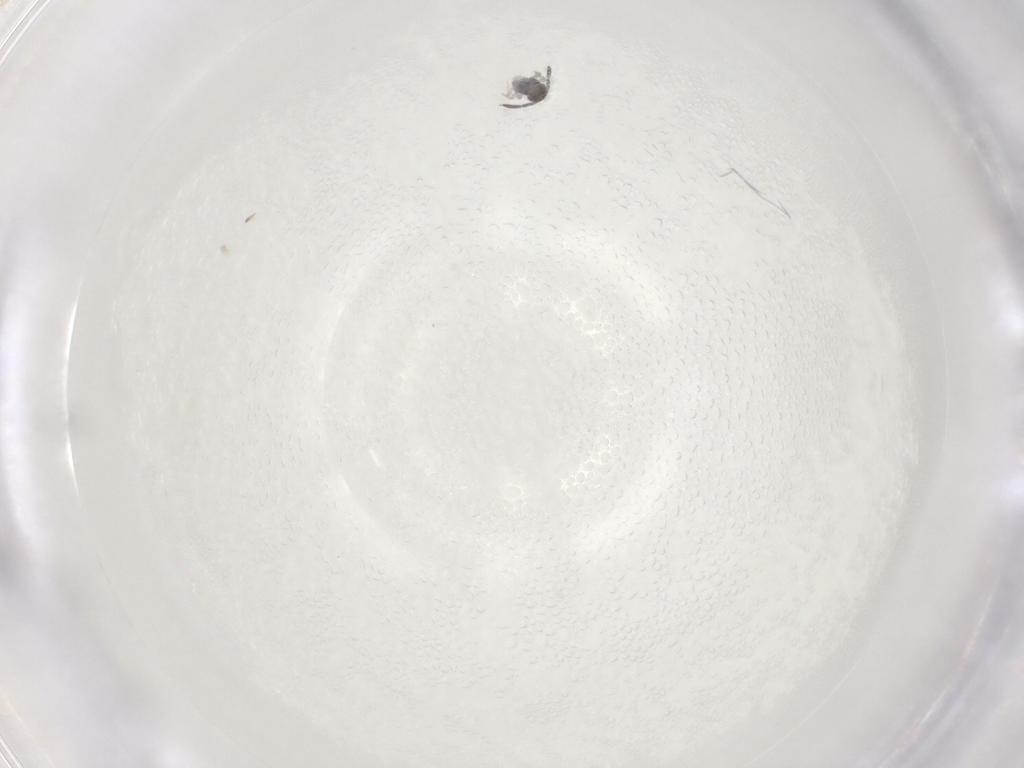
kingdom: Animalia
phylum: Arthropoda
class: Collembola
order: Symphypleona
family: Katiannidae
